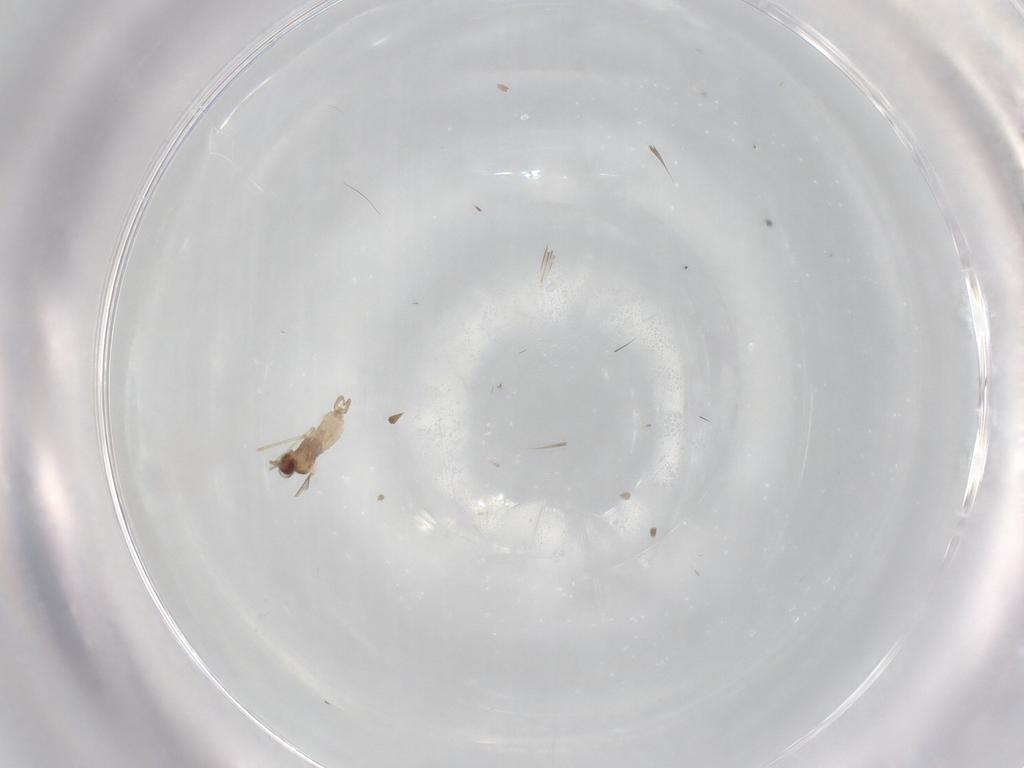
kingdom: Animalia
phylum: Arthropoda
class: Insecta
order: Diptera
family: Cecidomyiidae
